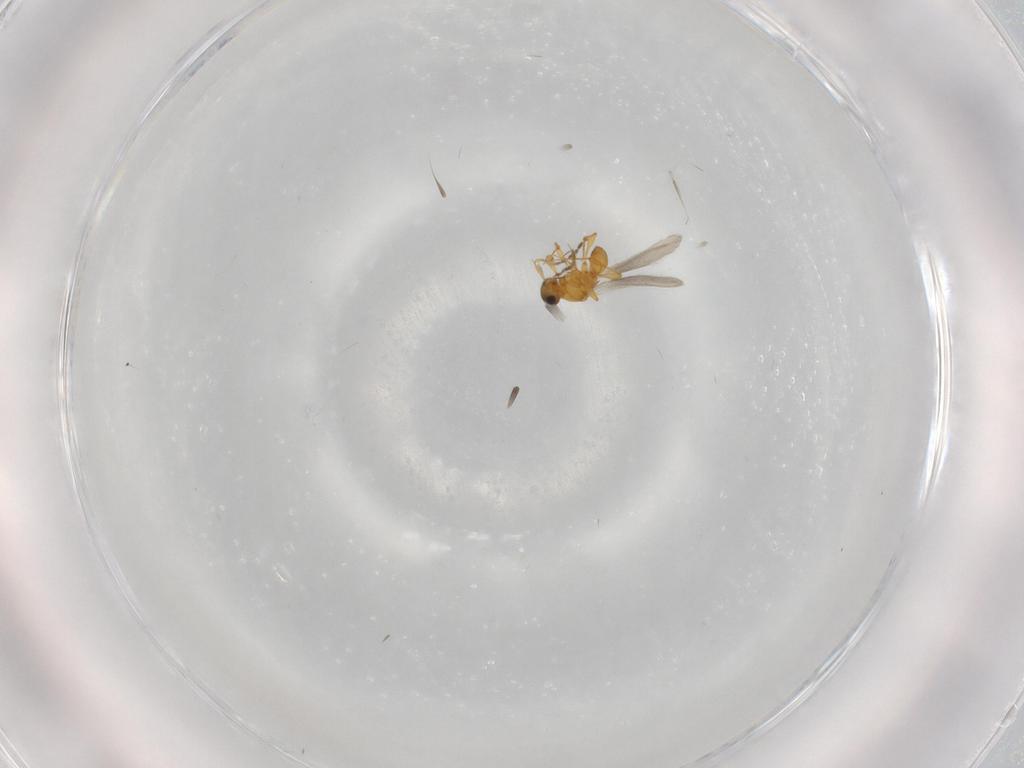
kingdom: Animalia
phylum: Arthropoda
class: Insecta
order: Hymenoptera
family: Platygastridae
